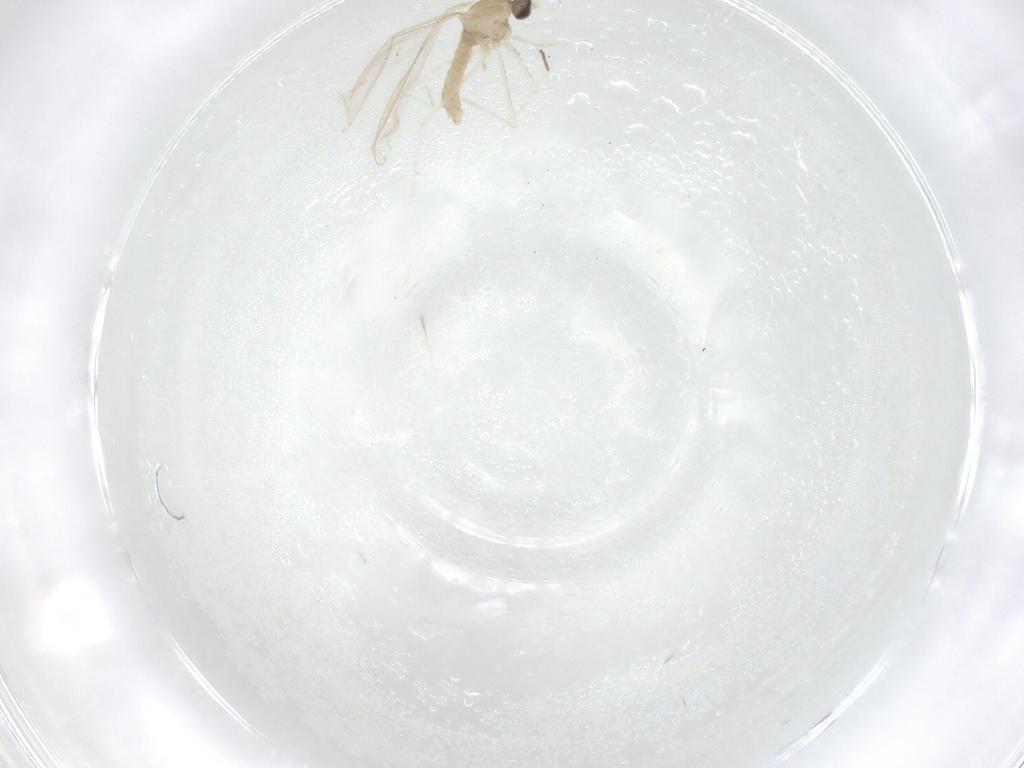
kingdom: Animalia
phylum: Arthropoda
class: Insecta
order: Diptera
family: Cecidomyiidae
